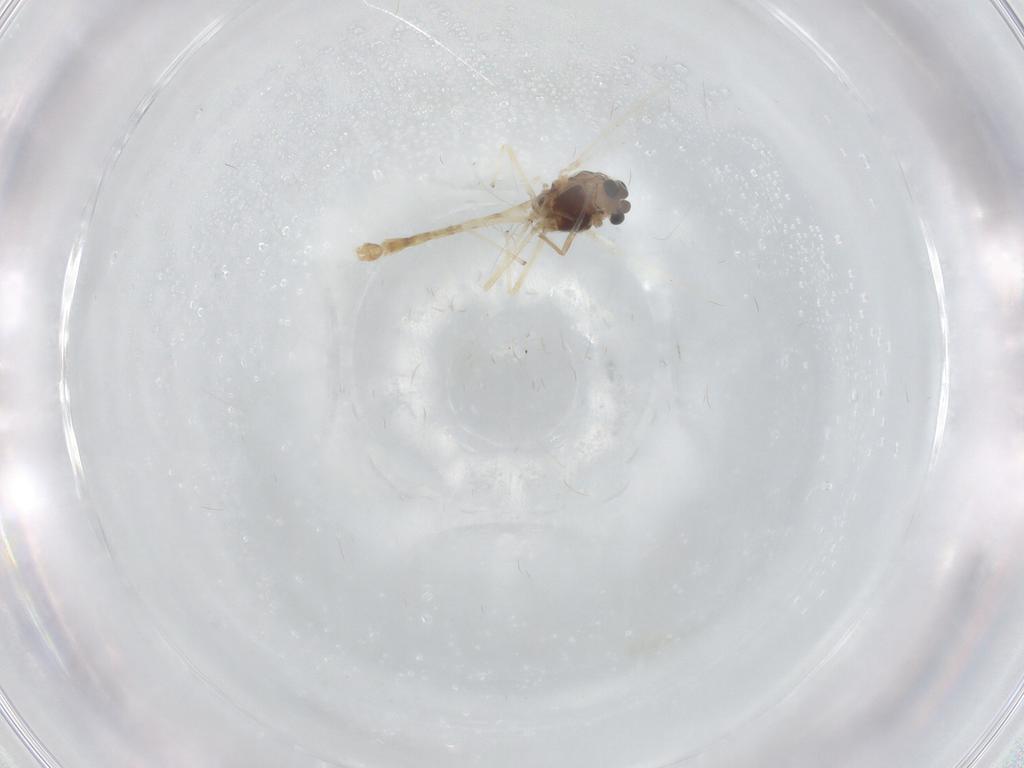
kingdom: Animalia
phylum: Arthropoda
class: Insecta
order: Diptera
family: Chironomidae
